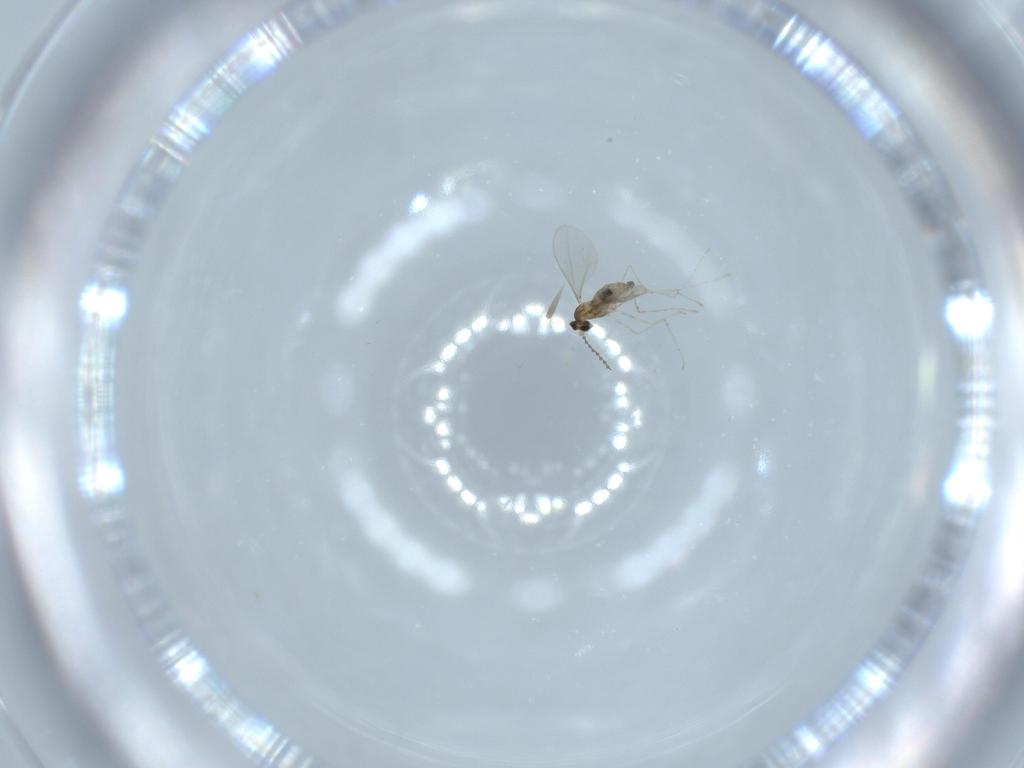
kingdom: Animalia
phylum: Arthropoda
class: Insecta
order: Diptera
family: Cecidomyiidae
